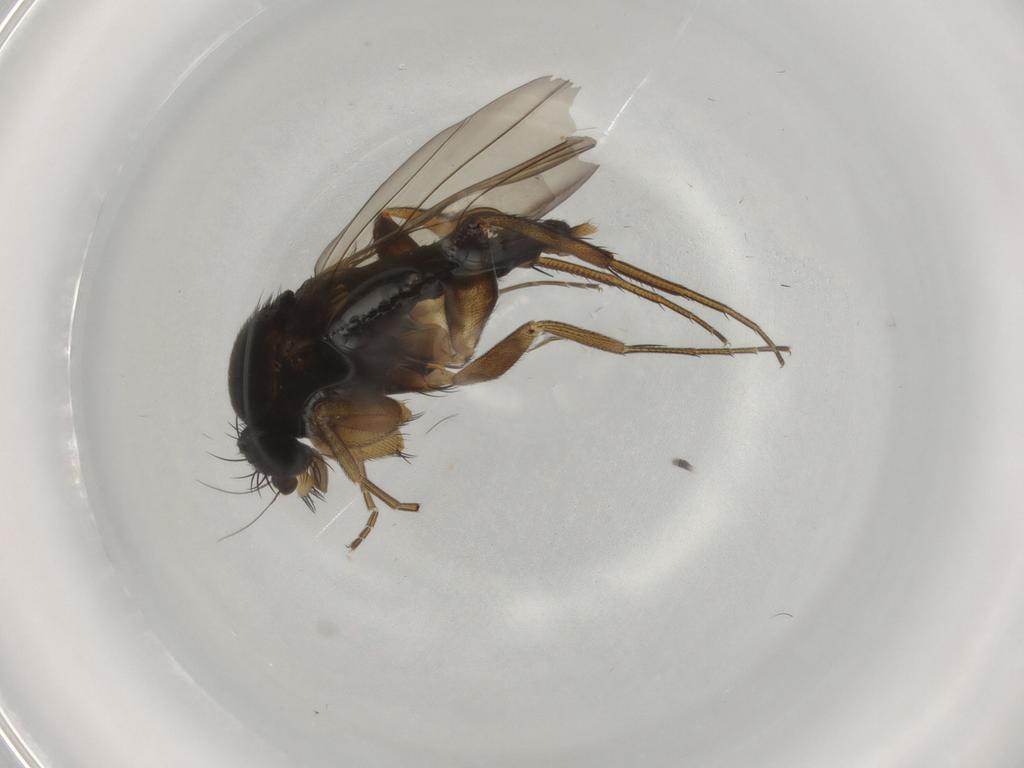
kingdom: Animalia
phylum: Arthropoda
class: Insecta
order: Diptera
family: Phoridae
